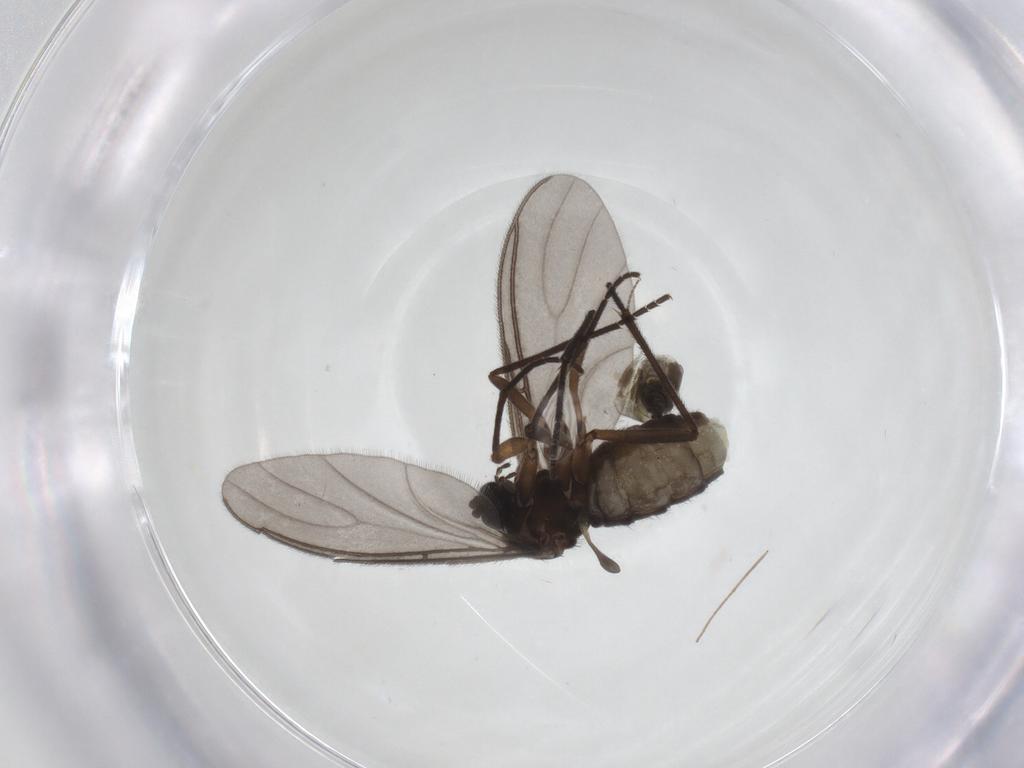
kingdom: Animalia
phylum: Arthropoda
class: Insecta
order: Diptera
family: Sciaridae
